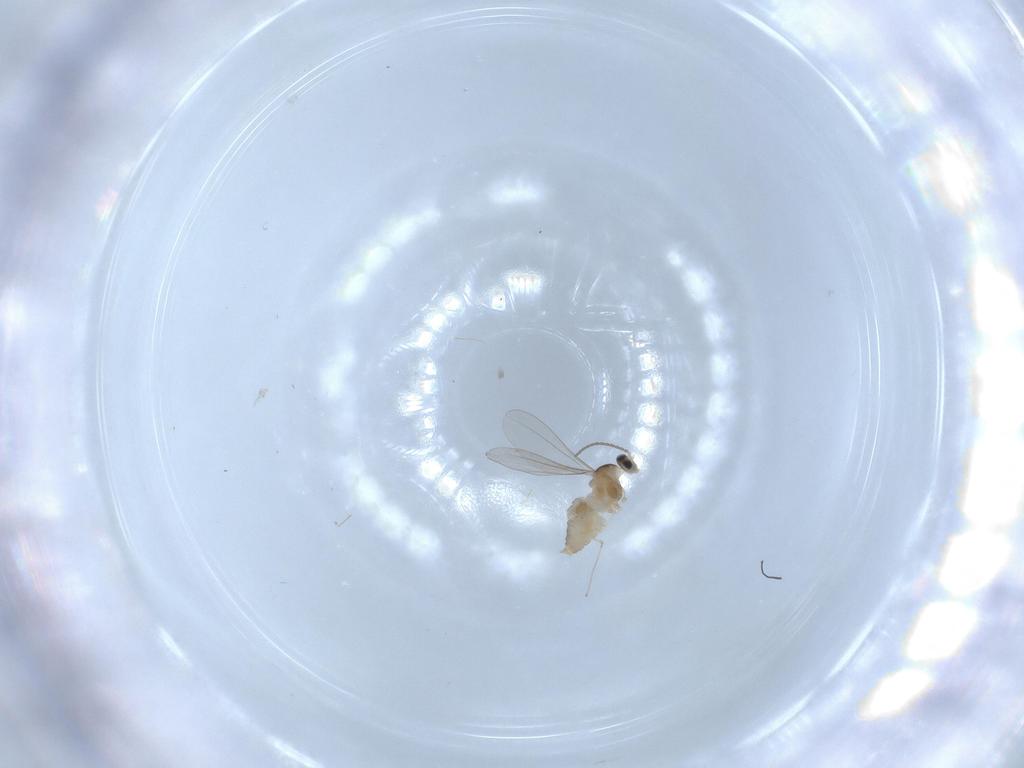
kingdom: Animalia
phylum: Arthropoda
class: Insecta
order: Diptera
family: Cecidomyiidae
